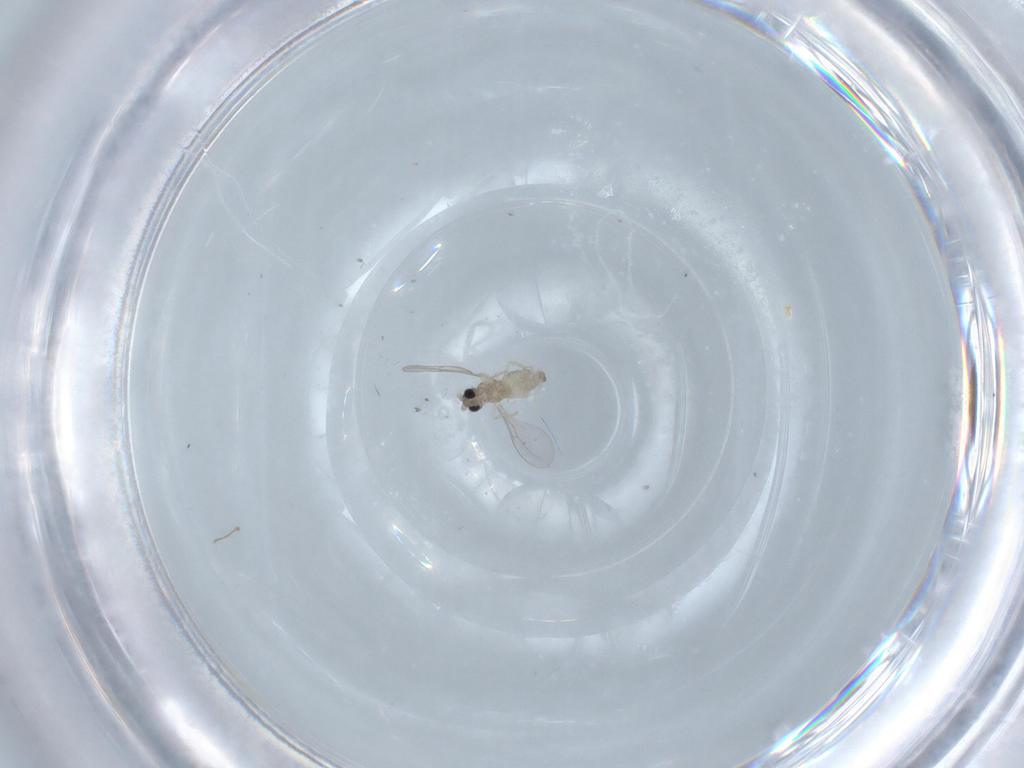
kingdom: Animalia
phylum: Arthropoda
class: Insecta
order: Diptera
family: Cecidomyiidae
